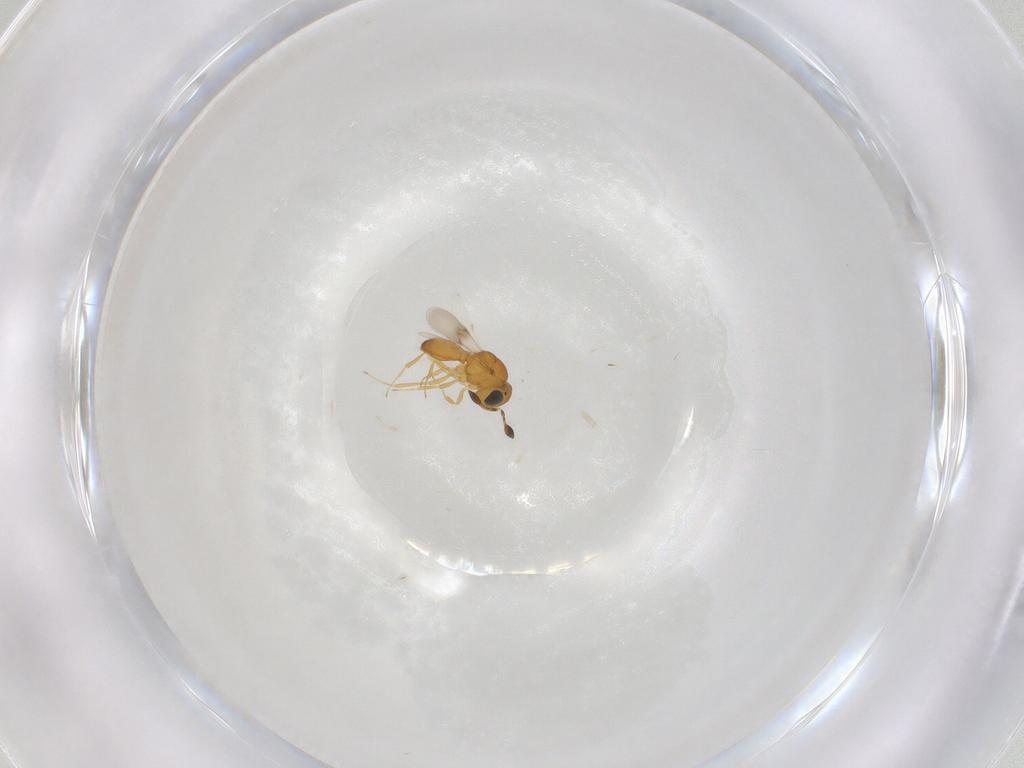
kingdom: Animalia
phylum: Arthropoda
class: Insecta
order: Hymenoptera
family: Scelionidae
